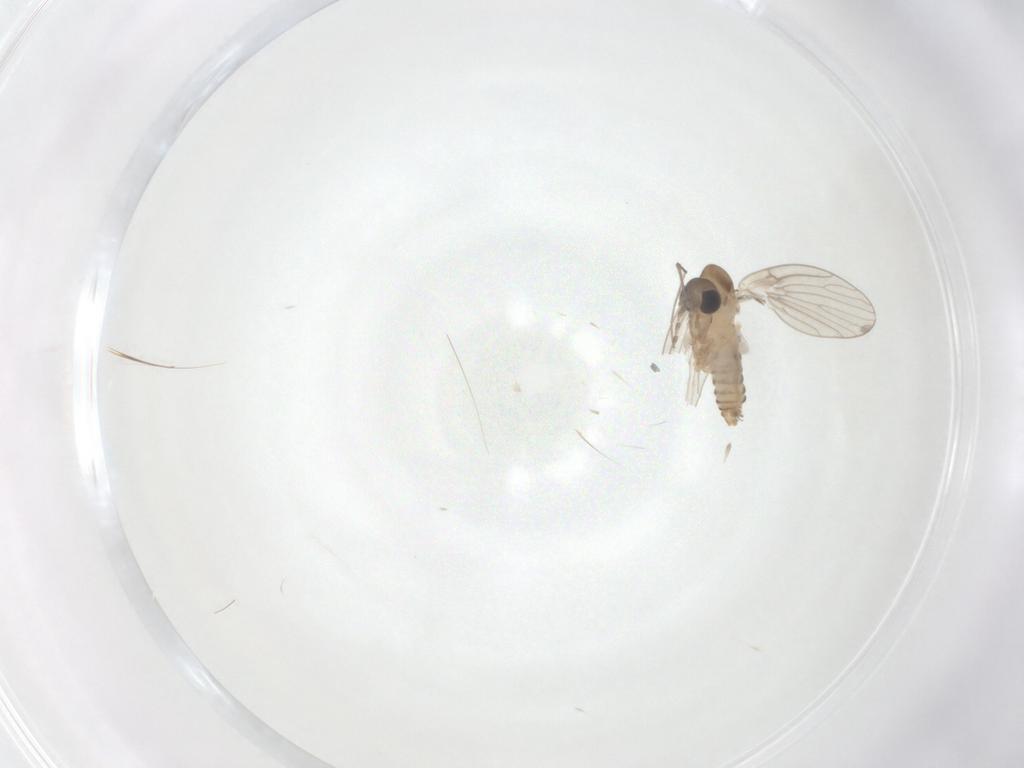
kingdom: Animalia
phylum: Arthropoda
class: Insecta
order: Diptera
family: Chironomidae
